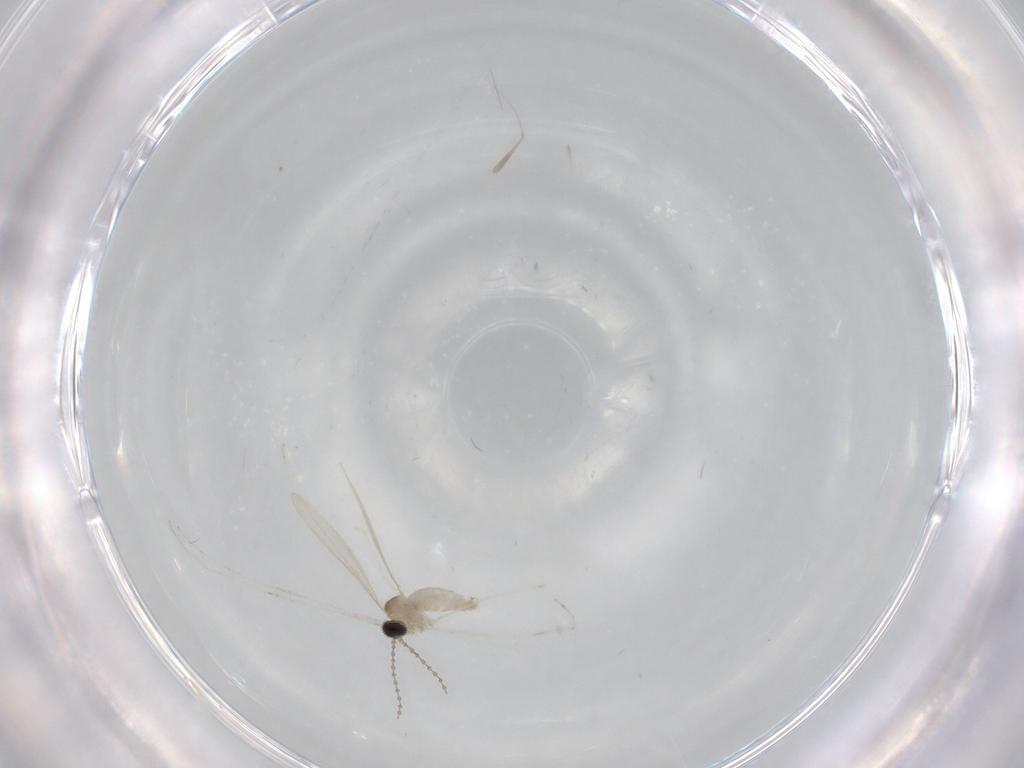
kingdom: Animalia
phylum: Arthropoda
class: Insecta
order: Diptera
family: Cecidomyiidae
